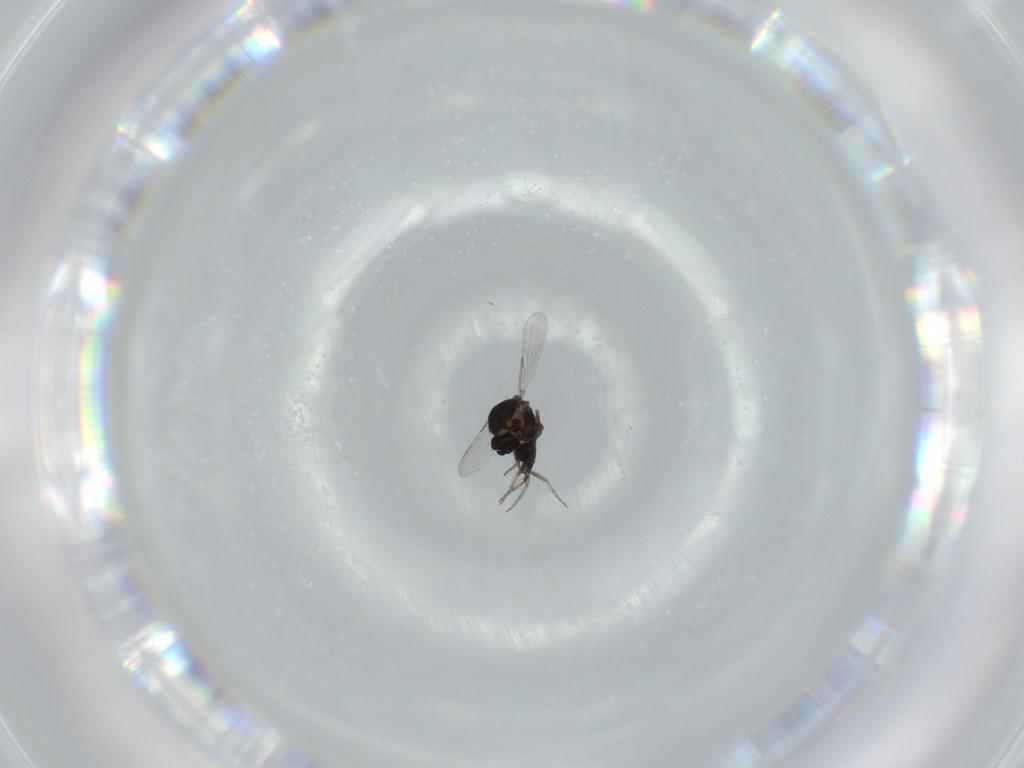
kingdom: Animalia
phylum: Arthropoda
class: Insecta
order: Diptera
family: Ceratopogonidae
